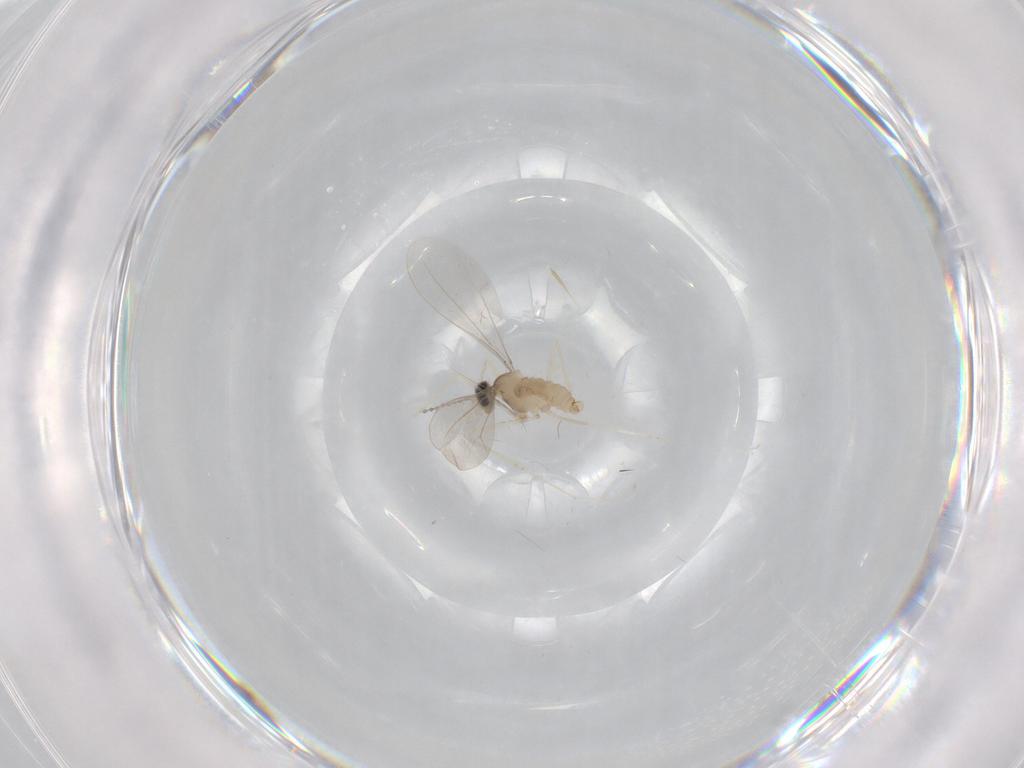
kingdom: Animalia
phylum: Arthropoda
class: Insecta
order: Diptera
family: Cecidomyiidae
